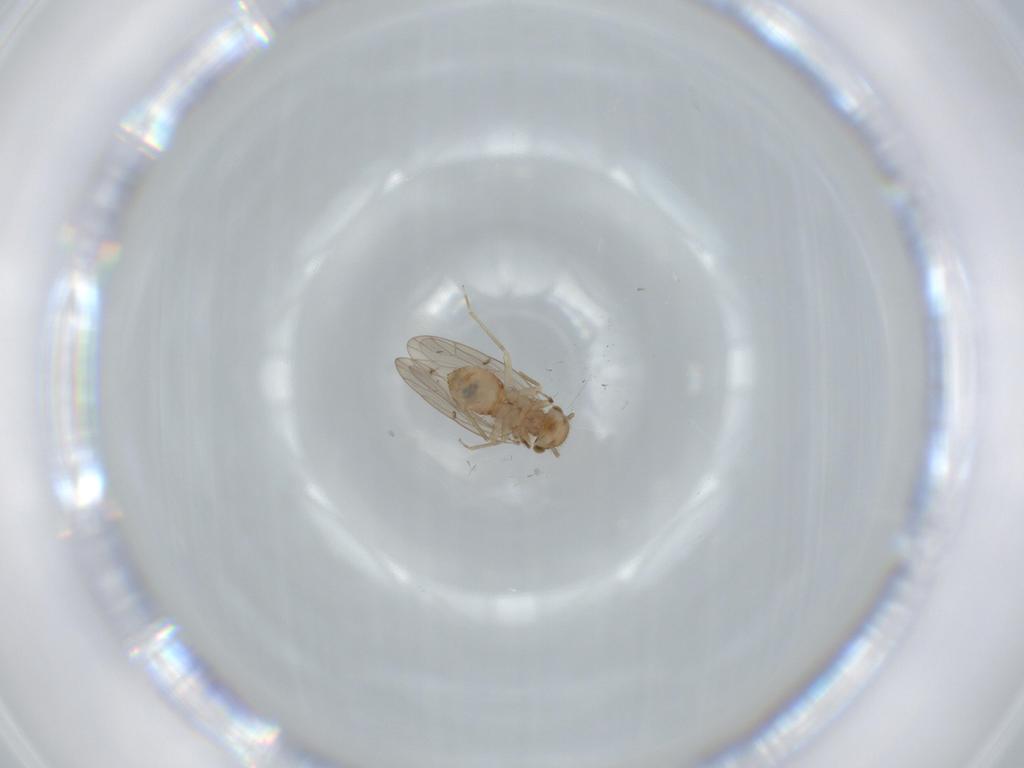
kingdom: Animalia
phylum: Arthropoda
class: Insecta
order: Psocodea
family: Ectopsocidae
